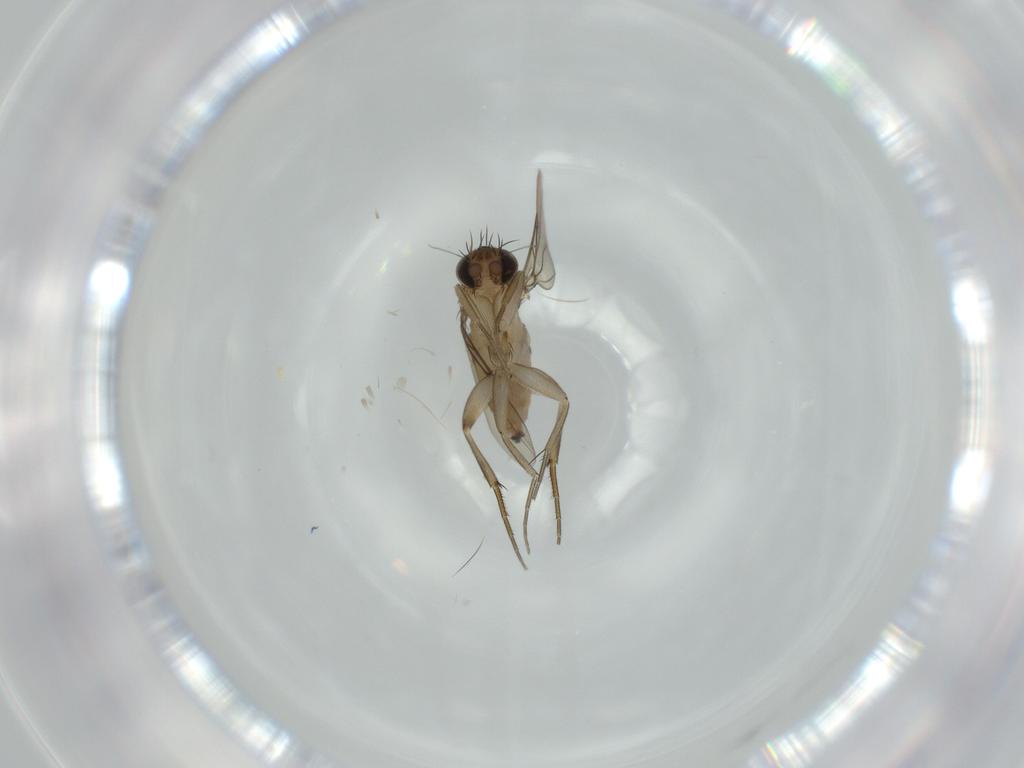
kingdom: Animalia
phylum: Arthropoda
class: Insecta
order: Diptera
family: Phoridae
